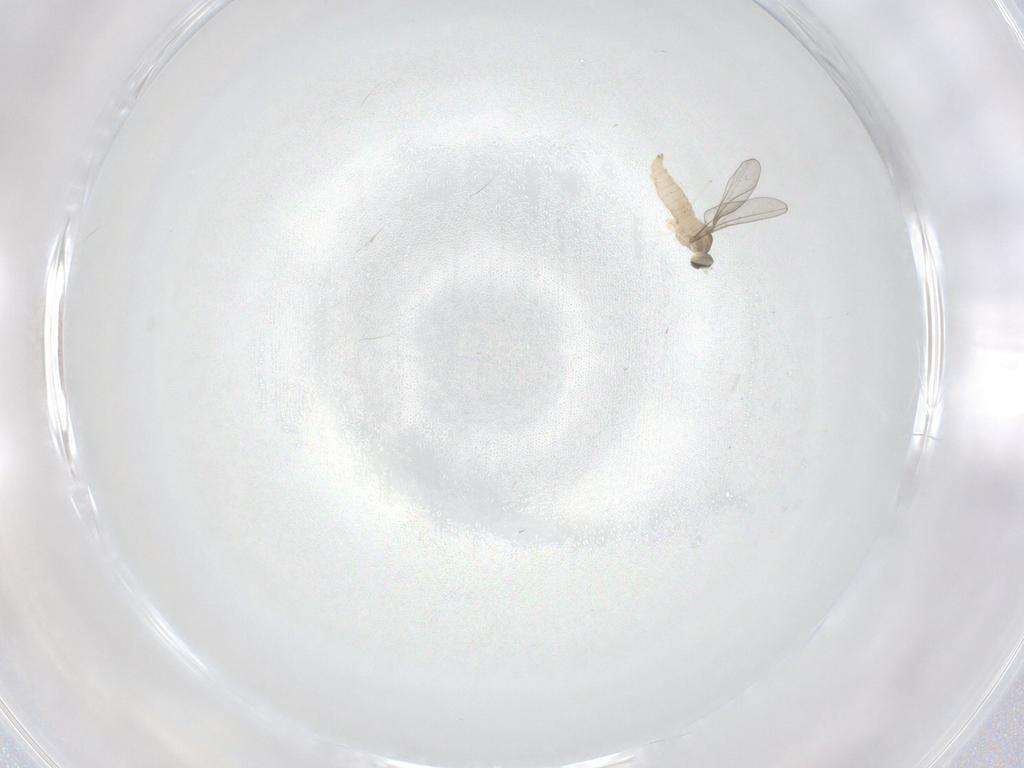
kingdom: Animalia
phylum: Arthropoda
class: Insecta
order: Diptera
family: Cecidomyiidae
